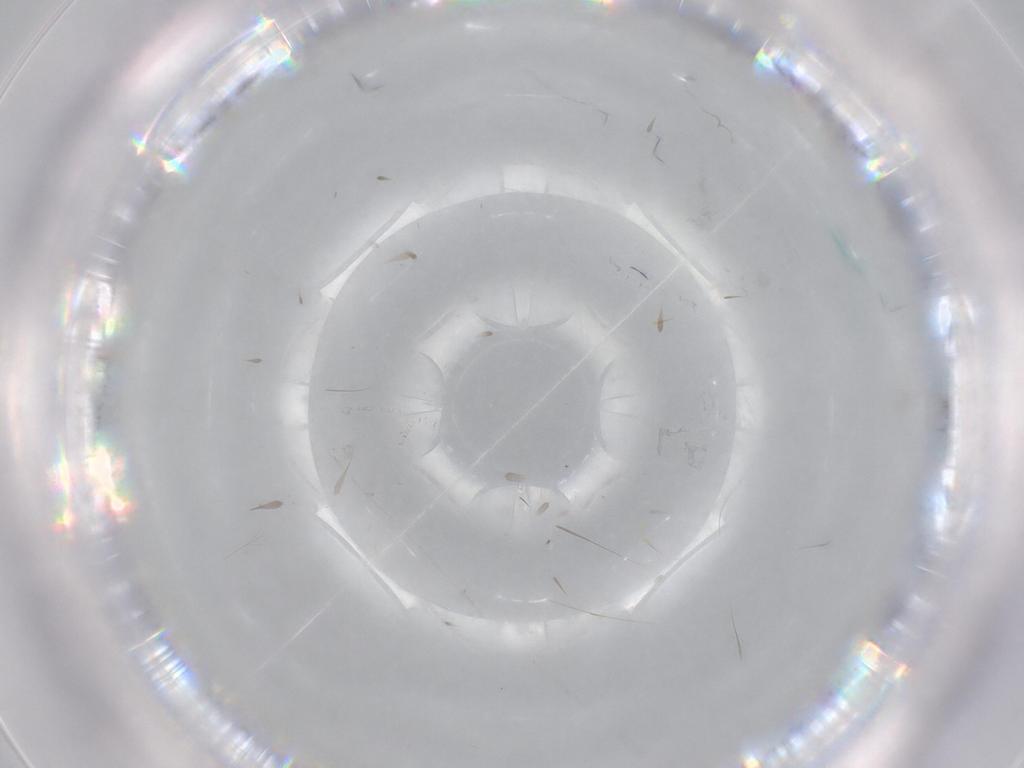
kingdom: Animalia
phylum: Arthropoda
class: Insecta
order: Diptera
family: Cecidomyiidae
